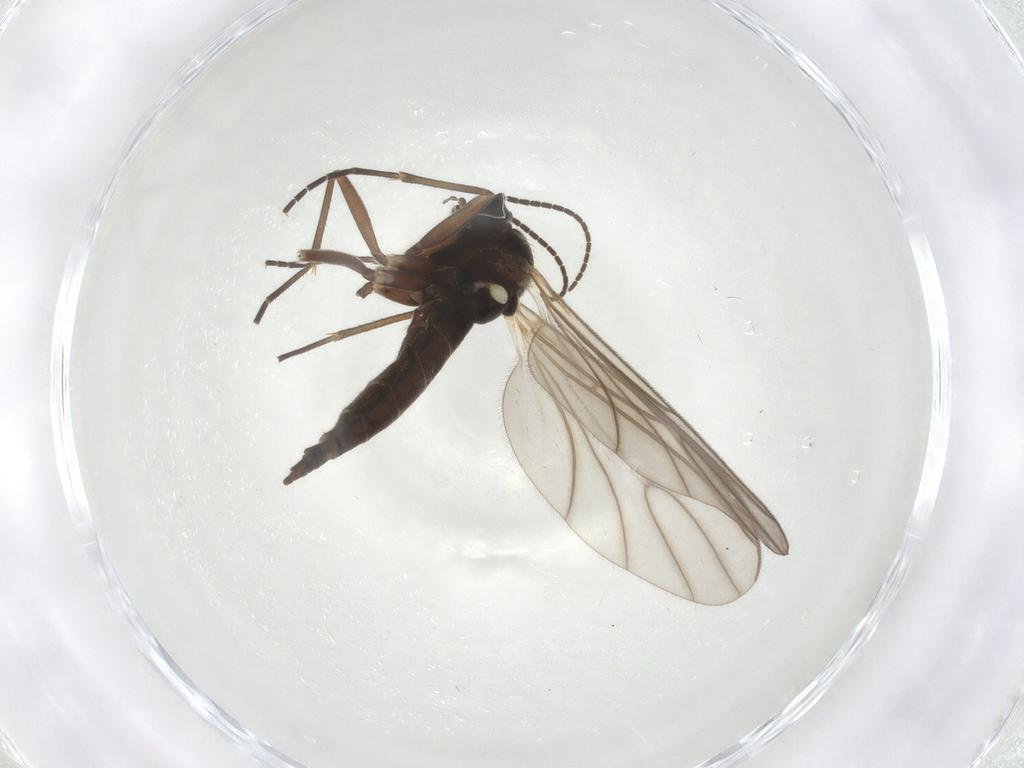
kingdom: Animalia
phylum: Arthropoda
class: Insecta
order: Diptera
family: Sciaridae
